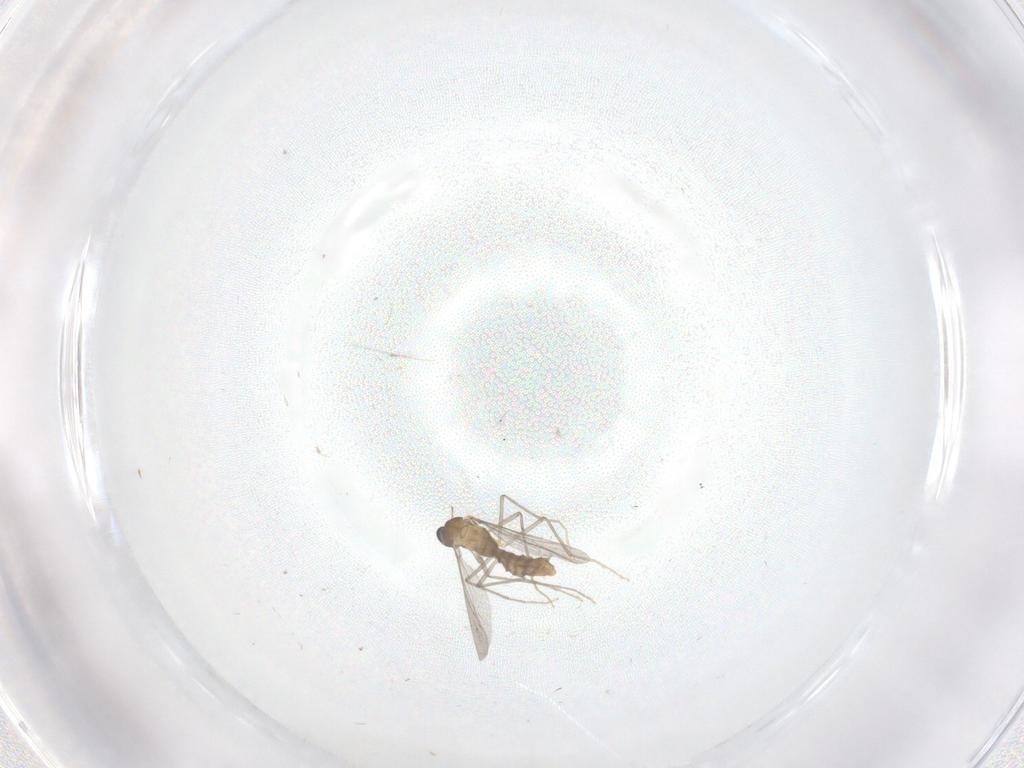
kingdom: Animalia
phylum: Arthropoda
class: Insecta
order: Diptera
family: Chironomidae
